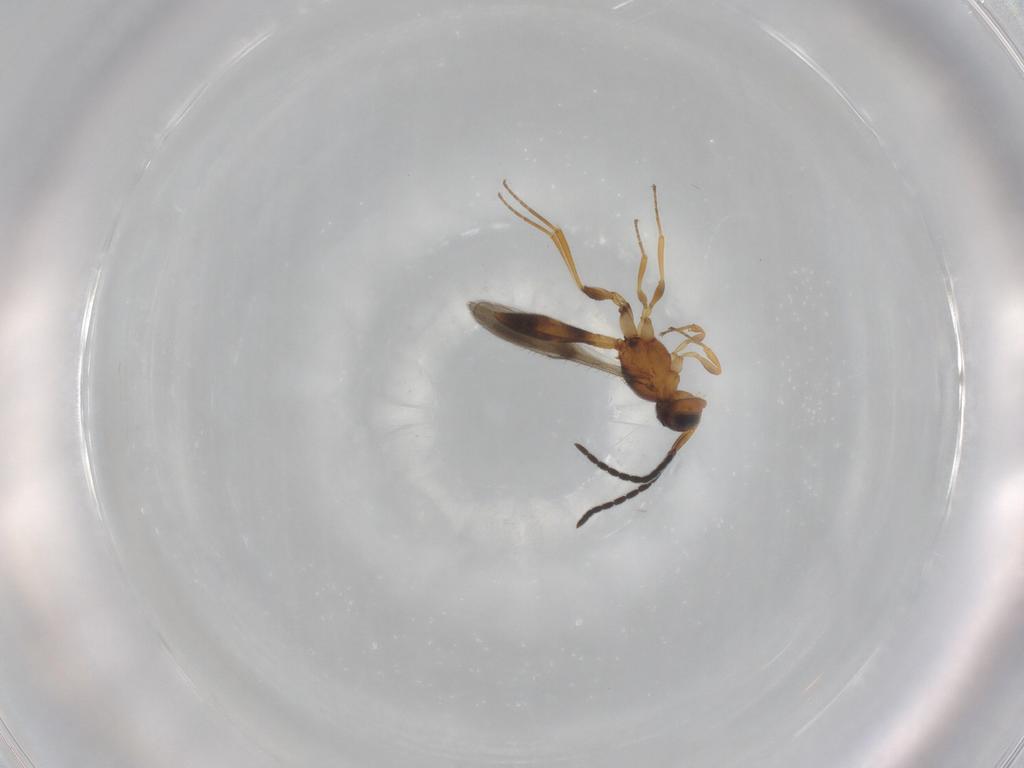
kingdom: Animalia
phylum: Arthropoda
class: Insecta
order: Hymenoptera
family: Scelionidae
